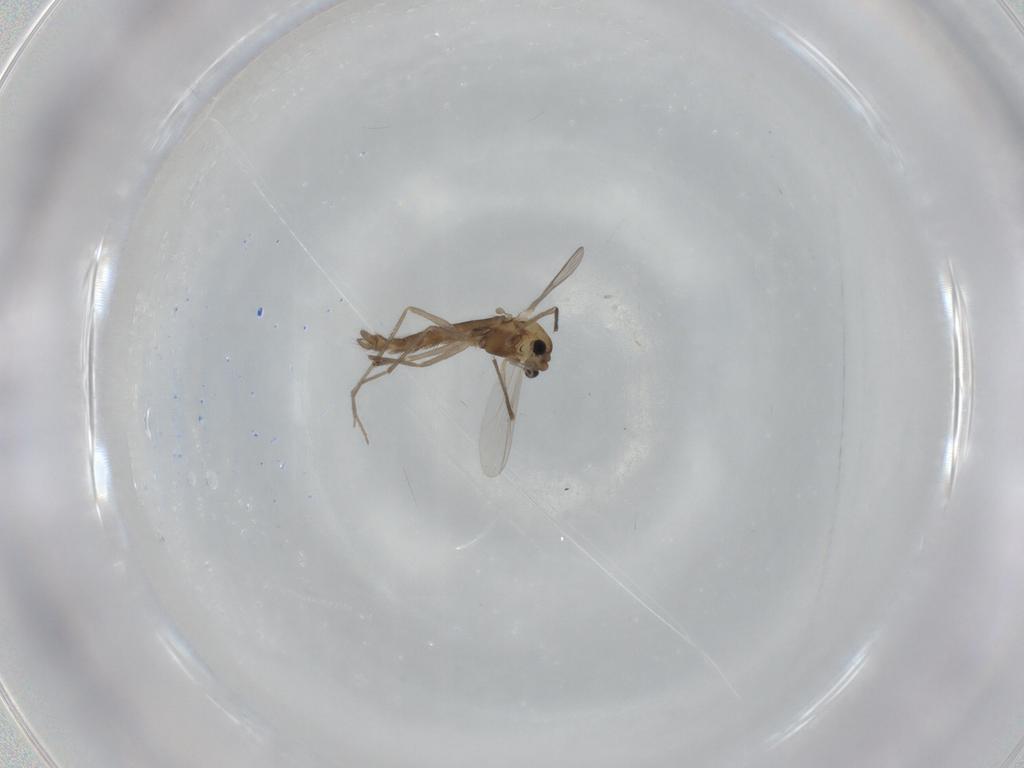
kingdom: Animalia
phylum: Arthropoda
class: Insecta
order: Diptera
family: Chironomidae
